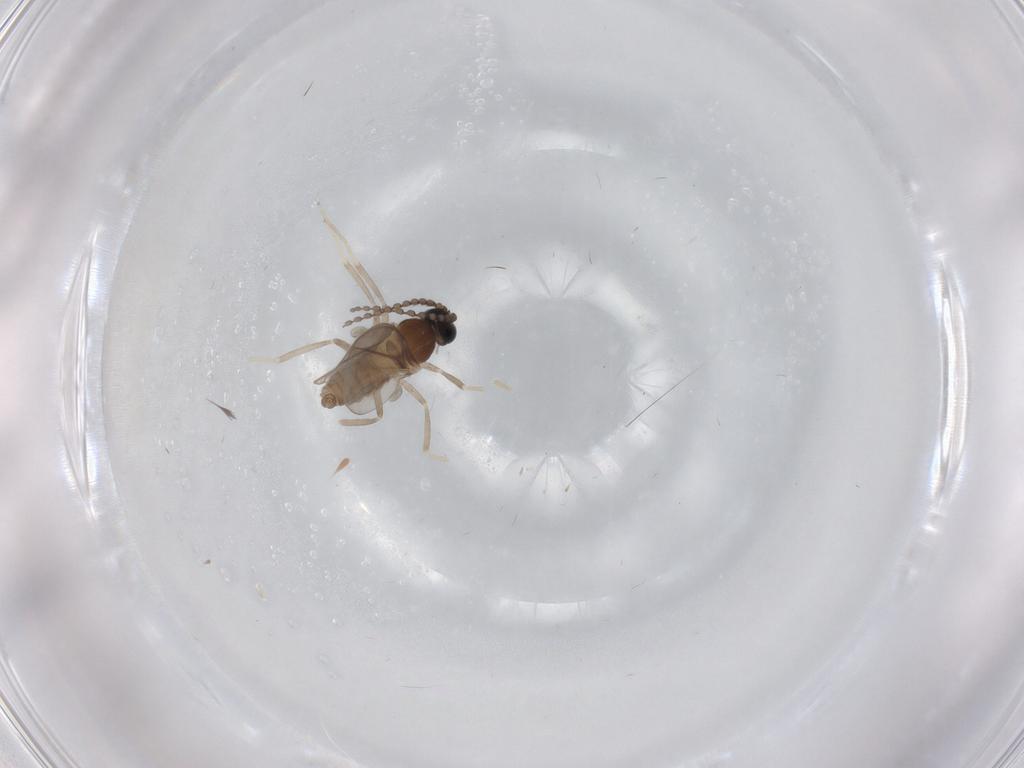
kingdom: Animalia
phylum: Arthropoda
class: Insecta
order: Diptera
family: Cecidomyiidae
